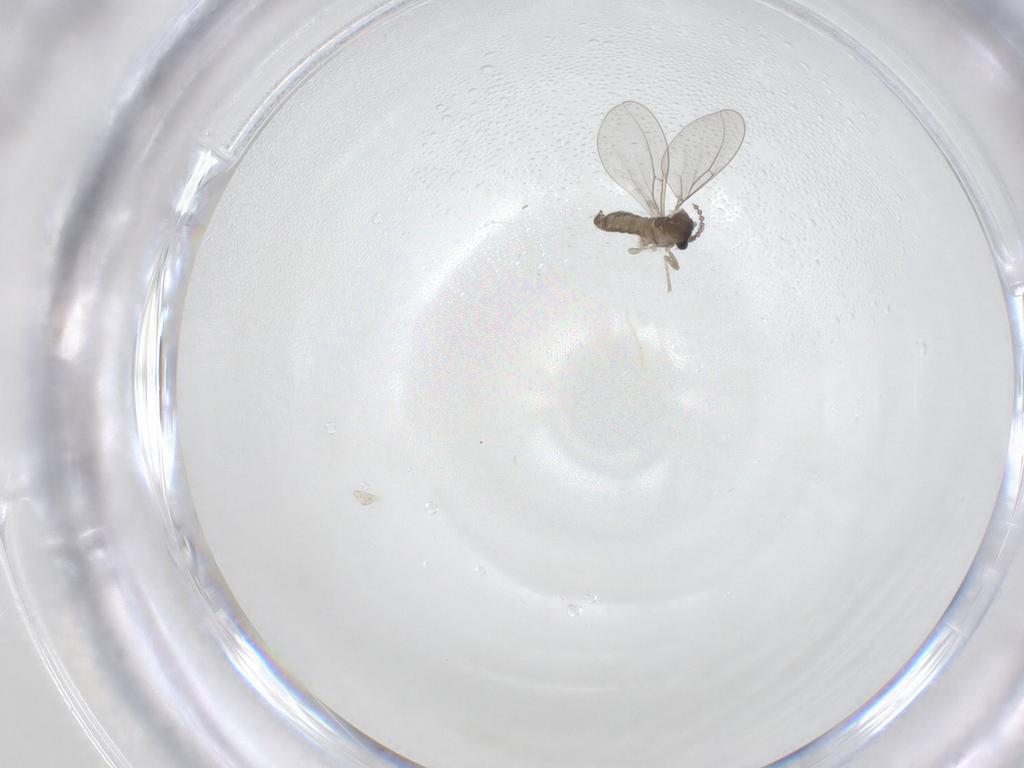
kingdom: Animalia
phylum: Arthropoda
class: Insecta
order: Diptera
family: Cecidomyiidae
